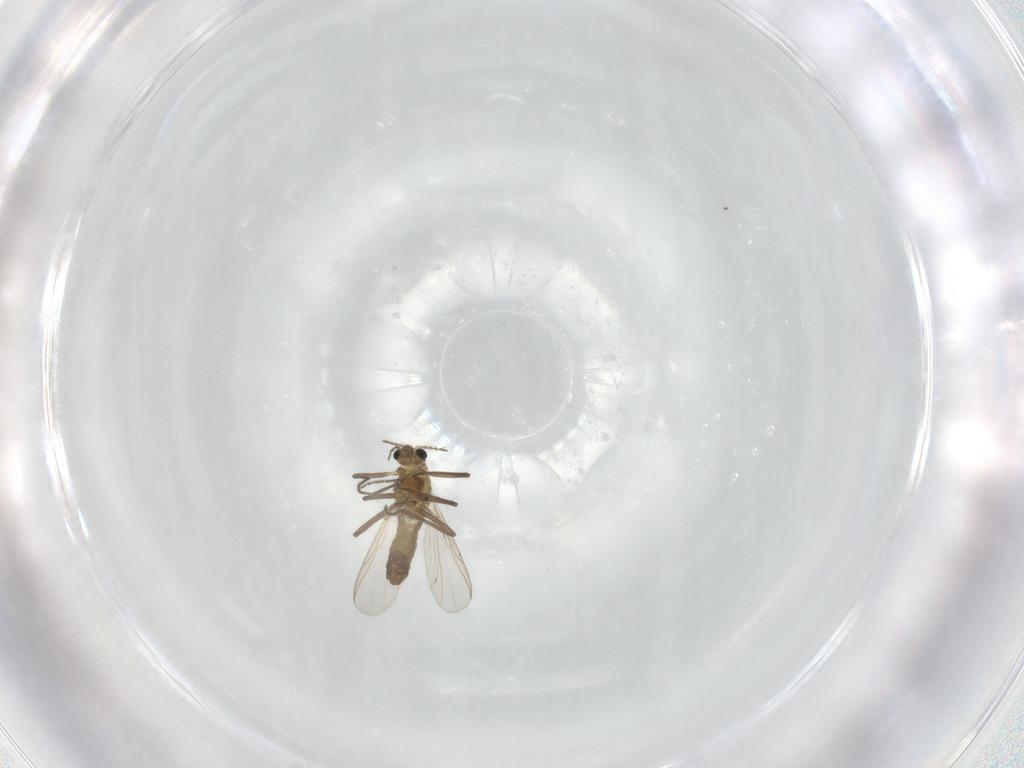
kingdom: Animalia
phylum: Arthropoda
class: Insecta
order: Diptera
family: Chironomidae
